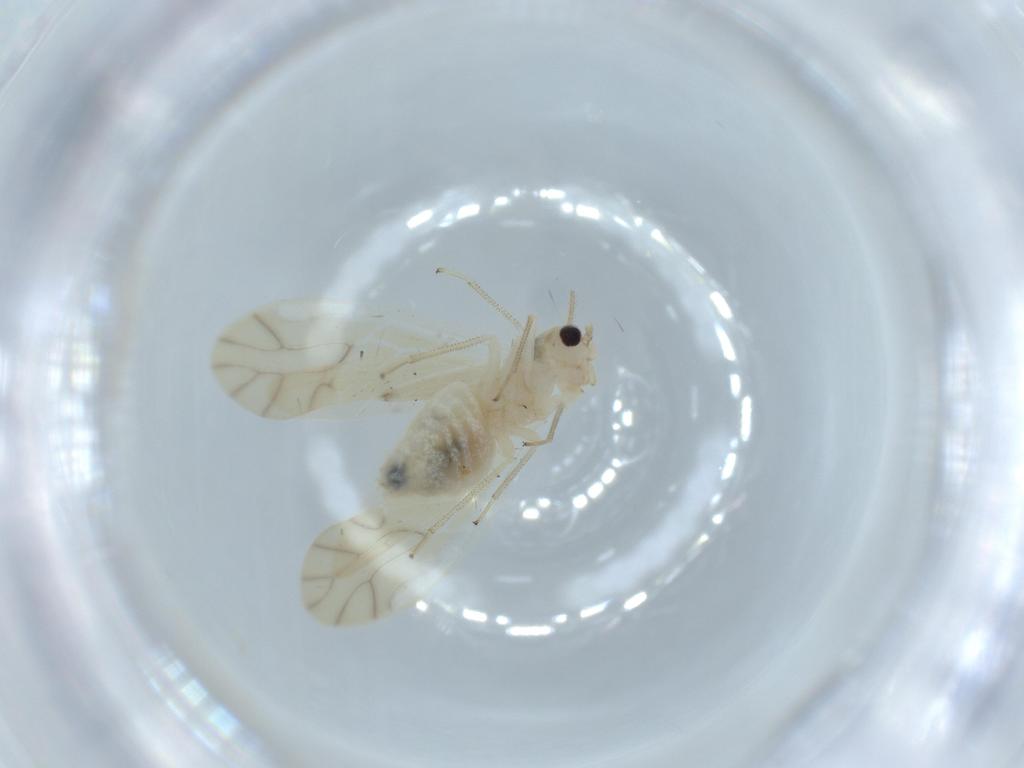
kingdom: Animalia
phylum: Arthropoda
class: Insecta
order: Psocodea
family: Caeciliusidae
